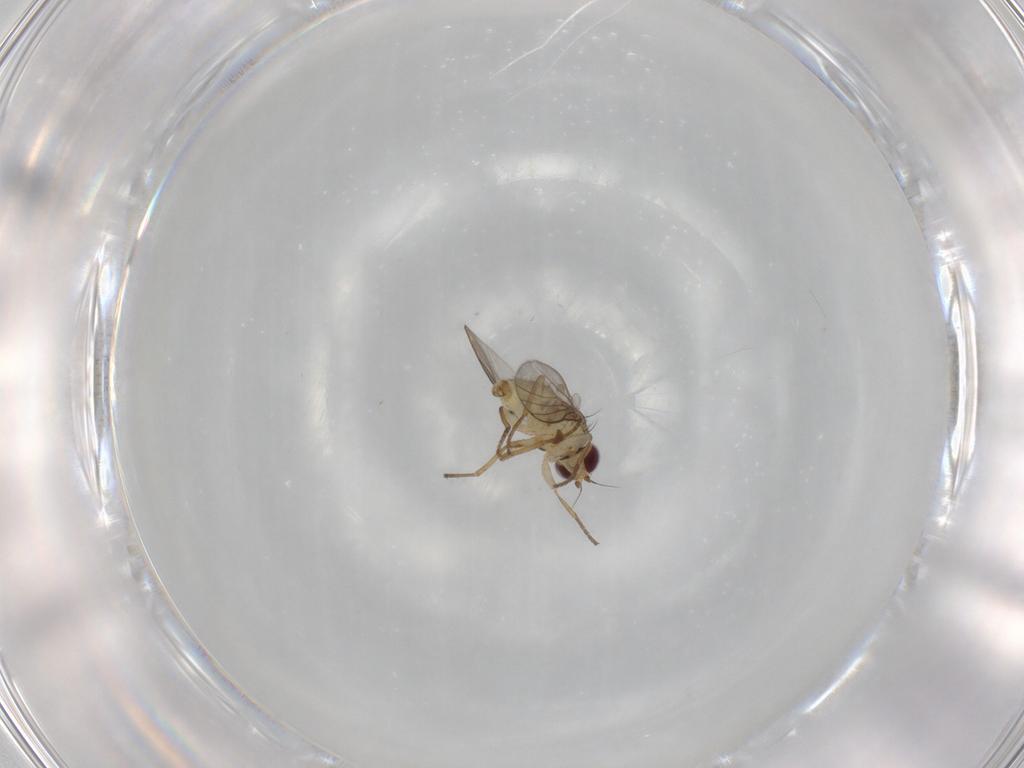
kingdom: Animalia
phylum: Arthropoda
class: Insecta
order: Diptera
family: Agromyzidae
